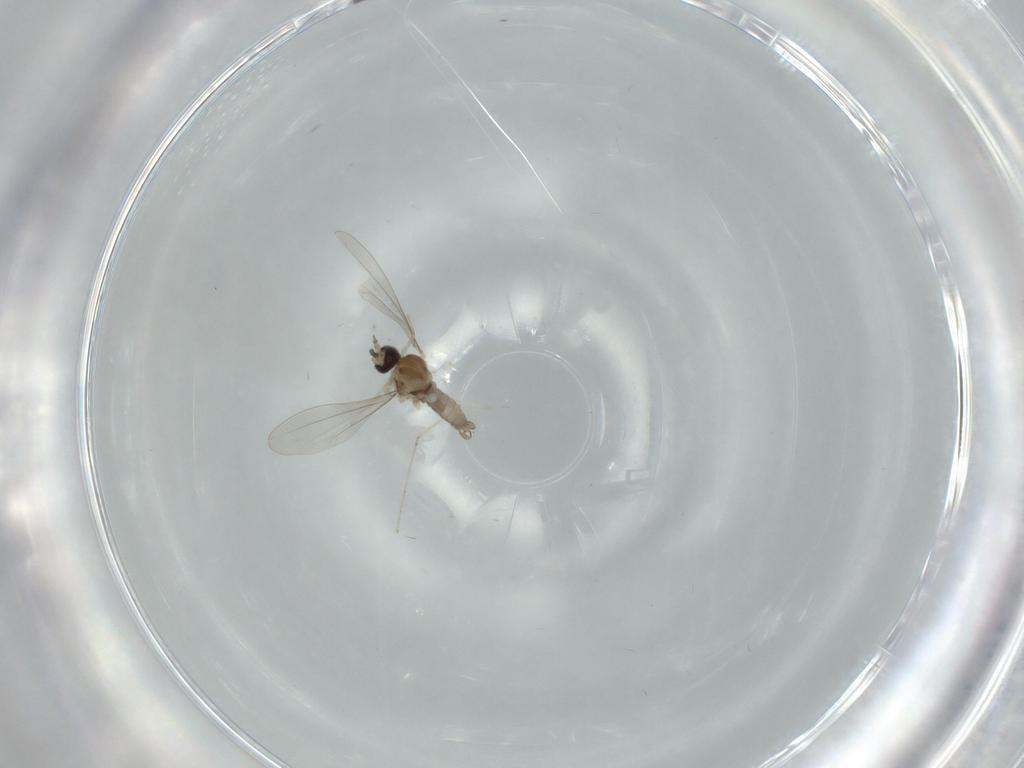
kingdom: Animalia
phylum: Arthropoda
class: Insecta
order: Diptera
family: Cecidomyiidae
